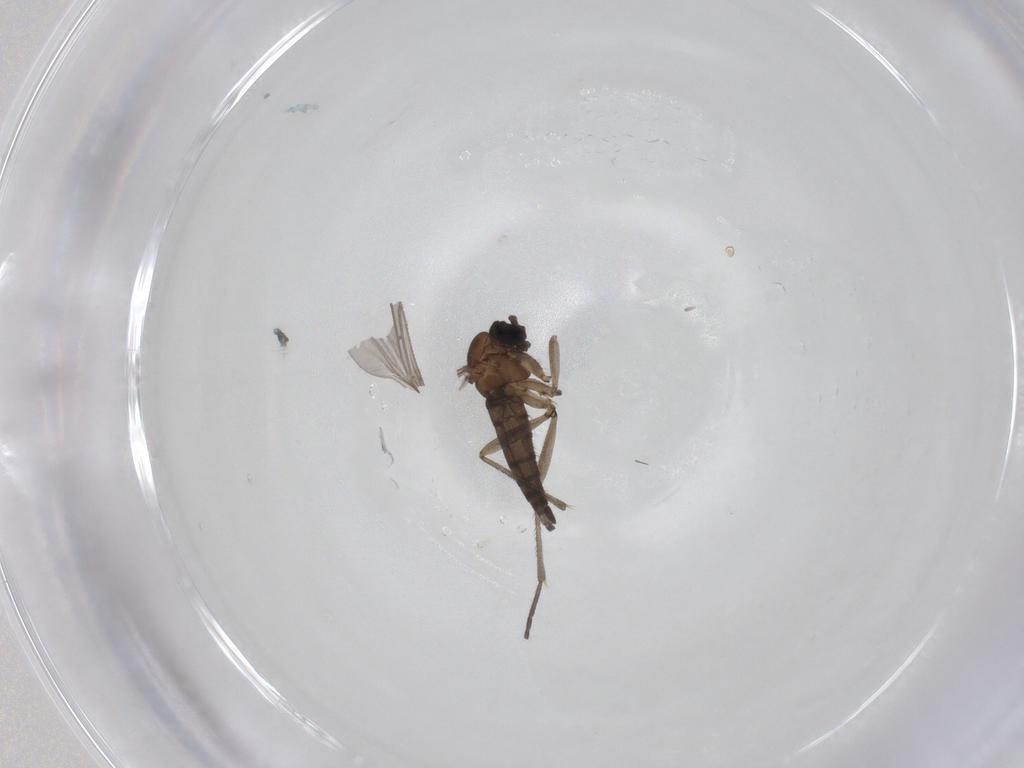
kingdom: Animalia
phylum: Arthropoda
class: Insecta
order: Diptera
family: Sciaridae
